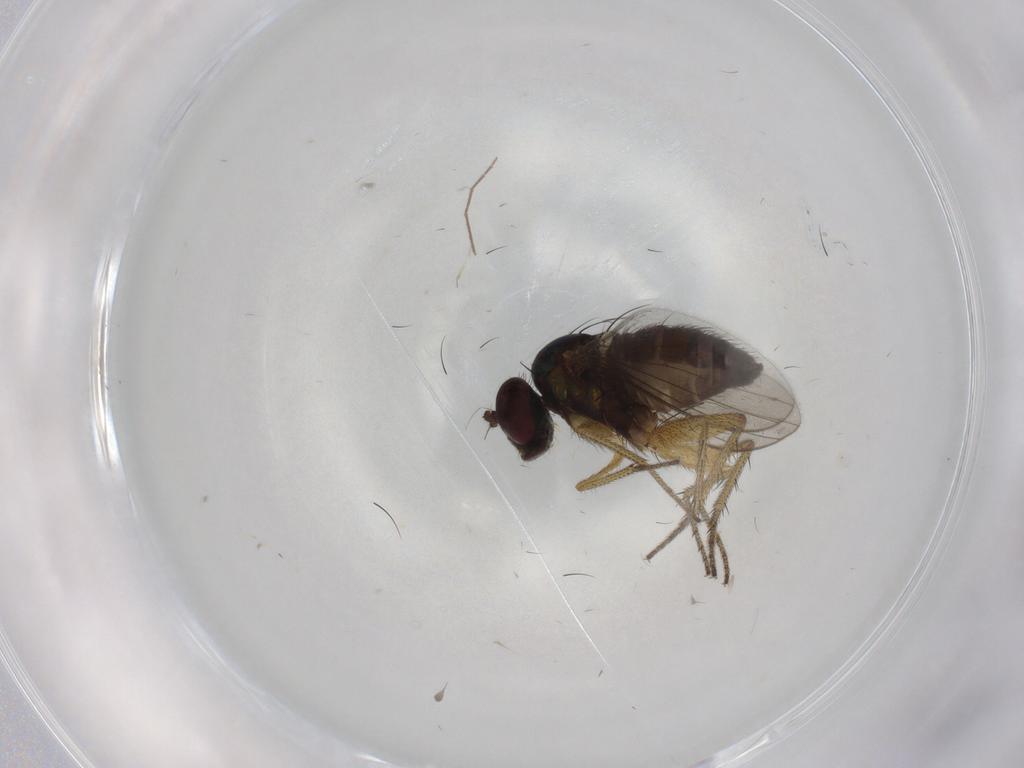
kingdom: Animalia
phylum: Arthropoda
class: Insecta
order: Diptera
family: Dolichopodidae
